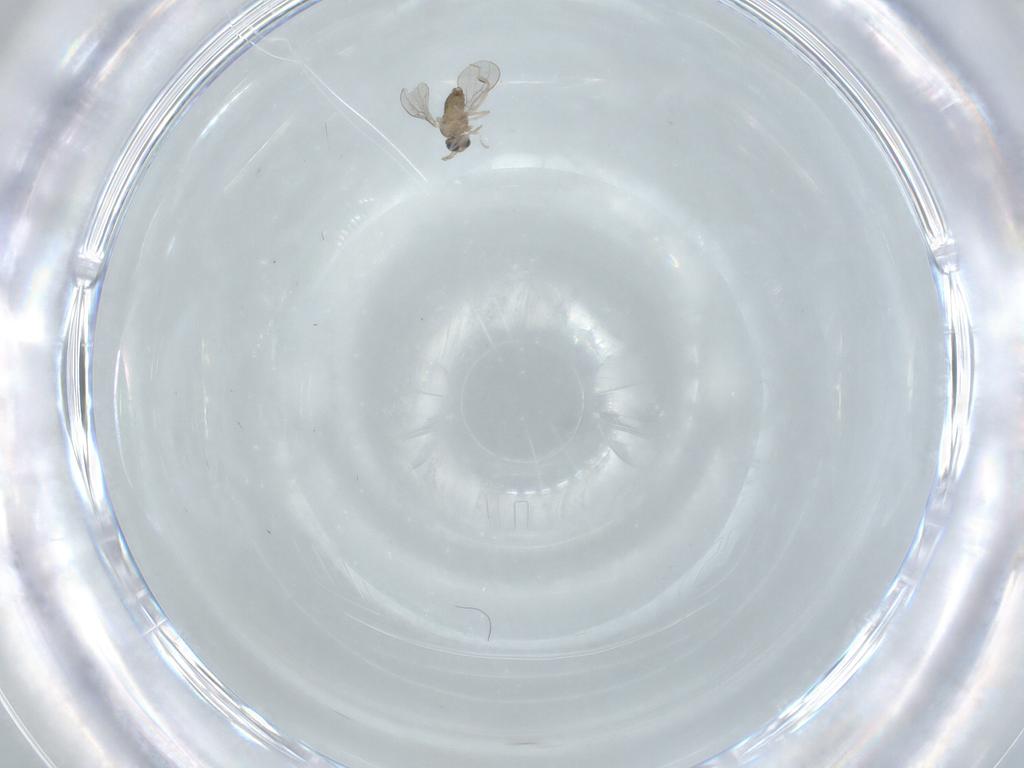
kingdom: Animalia
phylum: Arthropoda
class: Insecta
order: Diptera
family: Cecidomyiidae
